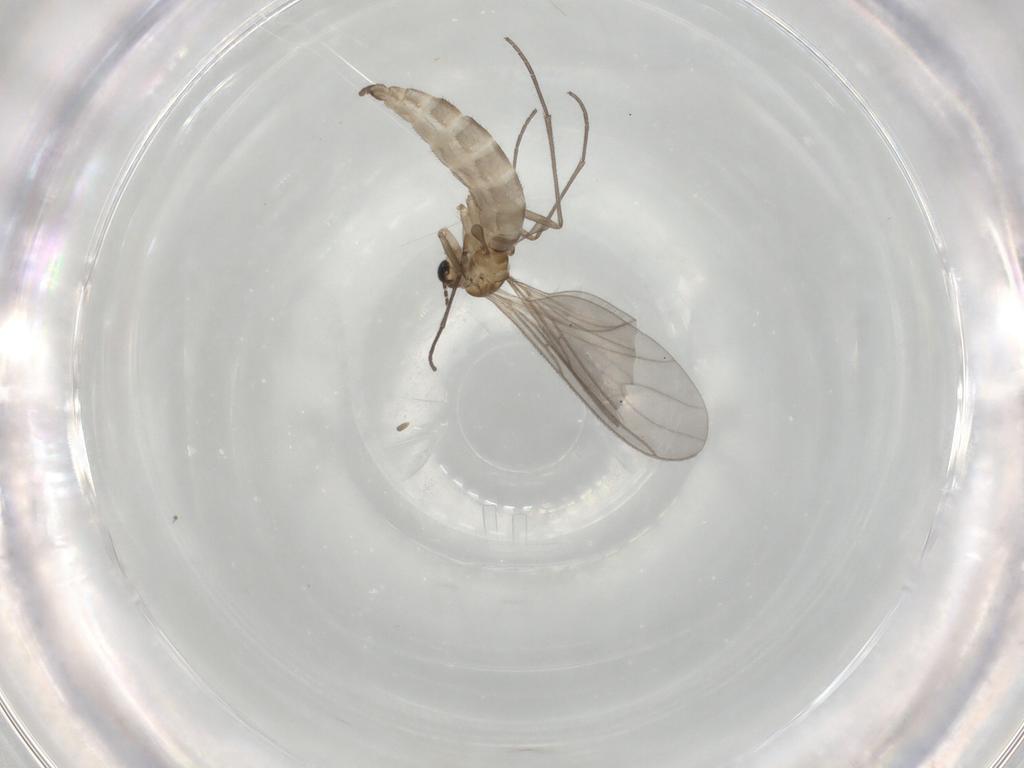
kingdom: Animalia
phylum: Arthropoda
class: Insecta
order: Diptera
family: Sciaridae
